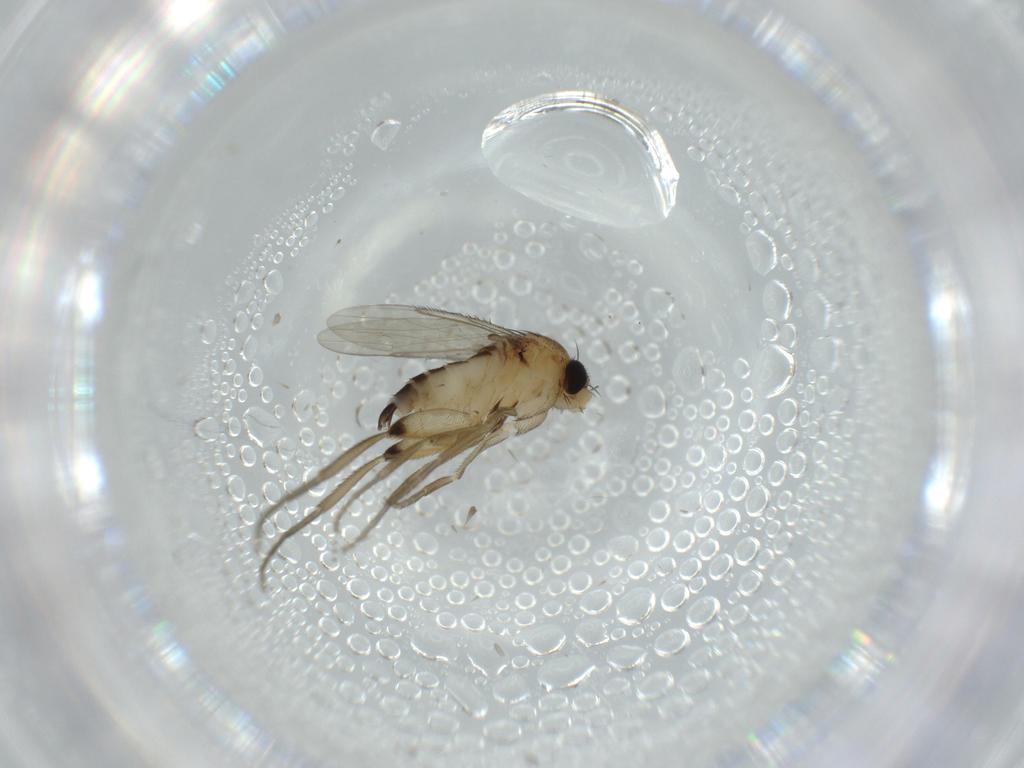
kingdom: Animalia
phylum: Arthropoda
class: Insecta
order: Diptera
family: Phoridae
